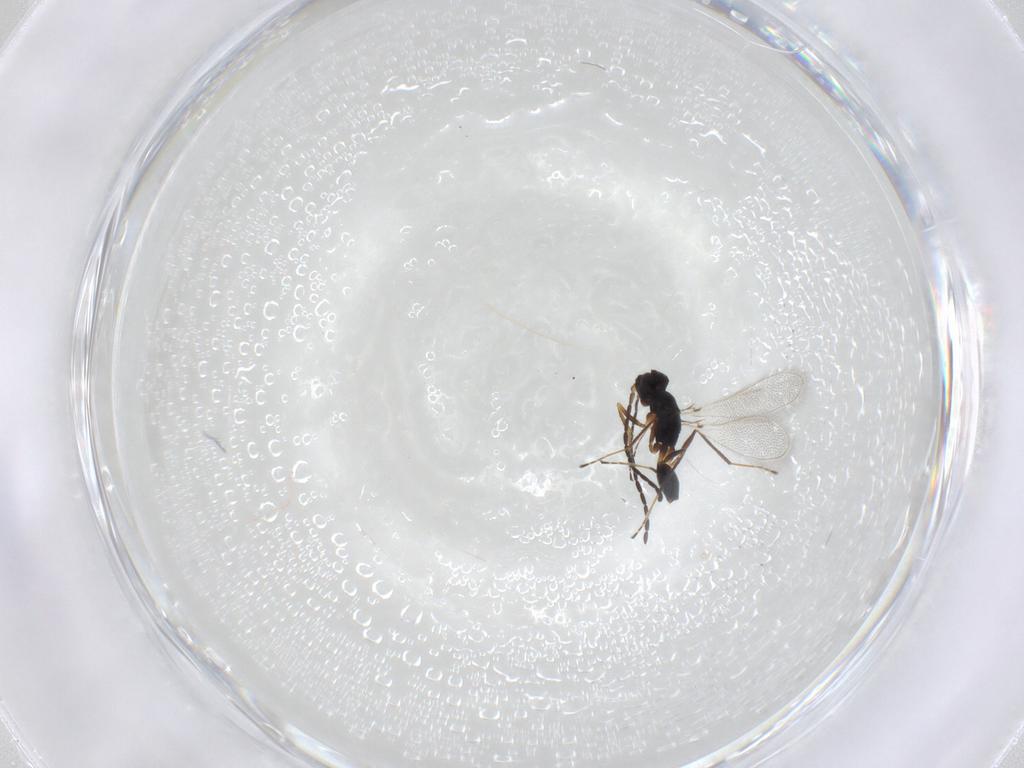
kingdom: Animalia
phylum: Arthropoda
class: Insecta
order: Hymenoptera
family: Mymaridae
